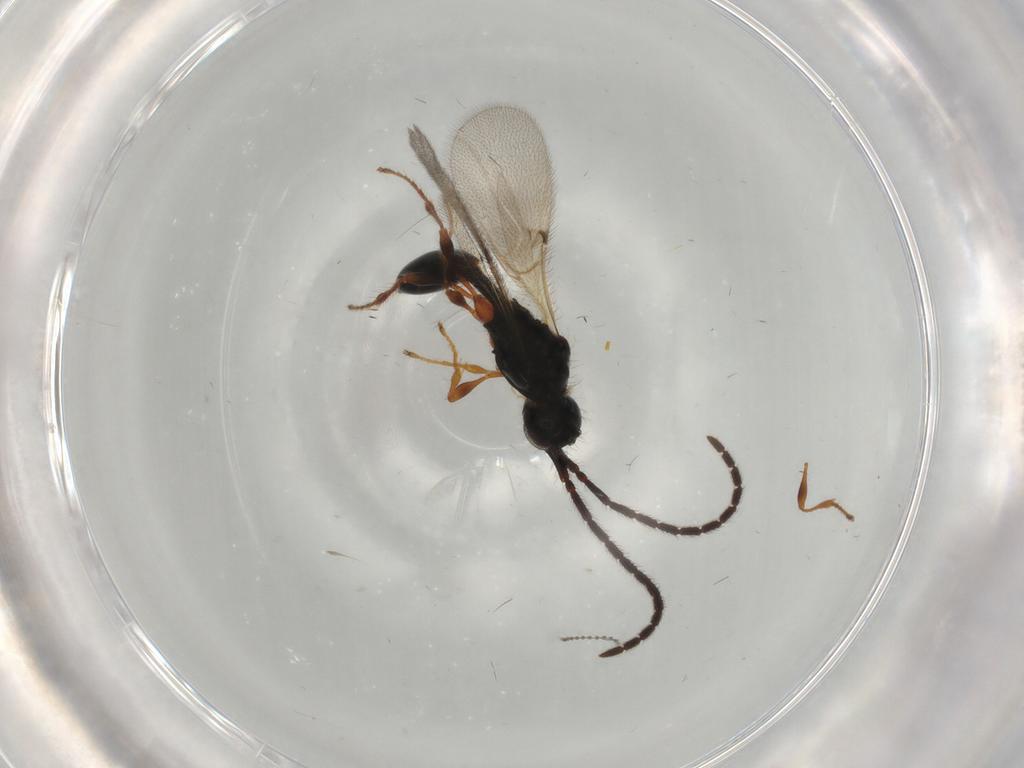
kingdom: Animalia
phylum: Arthropoda
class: Insecta
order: Hymenoptera
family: Diapriidae
